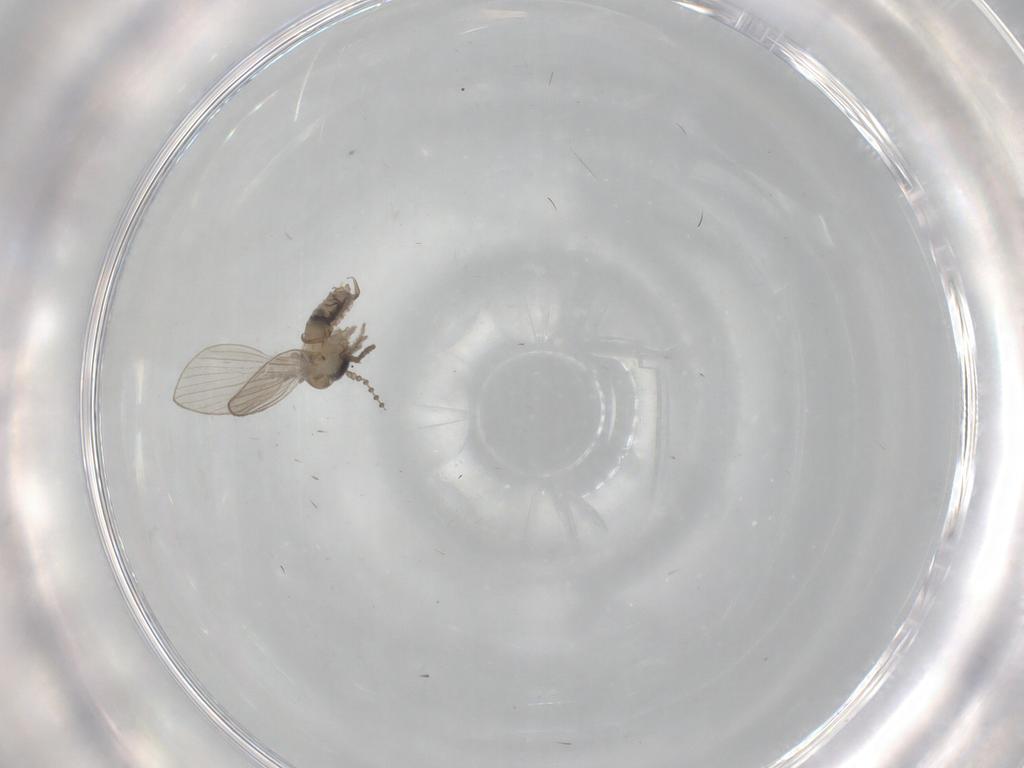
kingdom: Animalia
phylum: Arthropoda
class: Insecta
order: Diptera
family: Psychodidae
